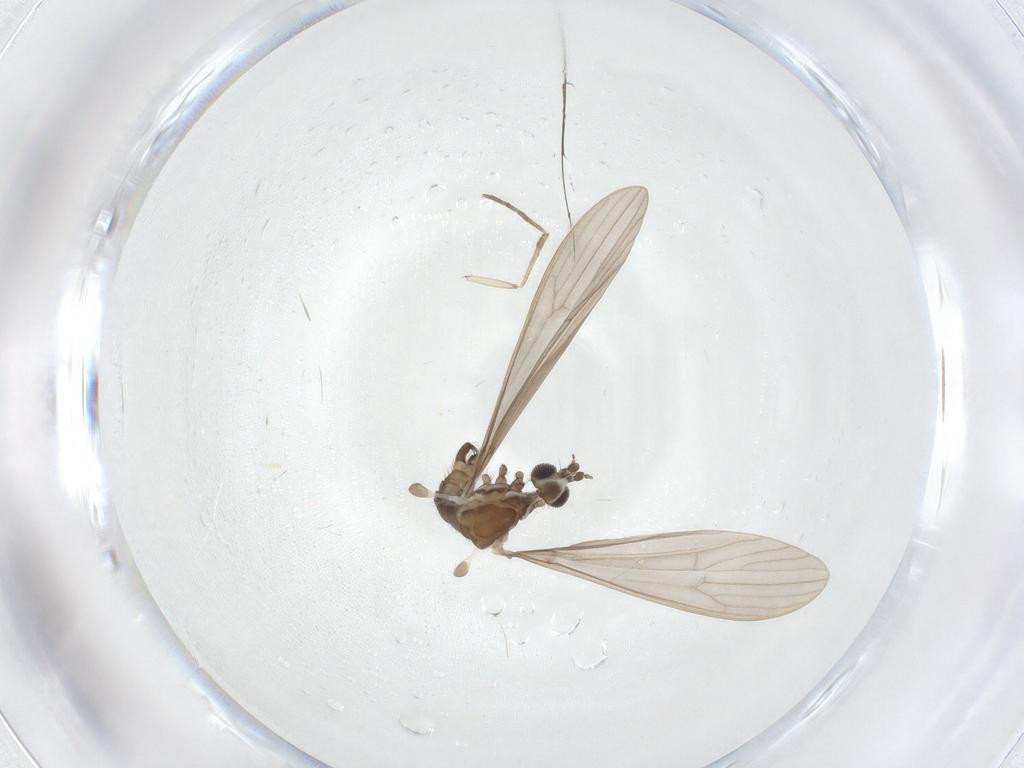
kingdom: Animalia
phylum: Arthropoda
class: Insecta
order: Diptera
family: Limoniidae
